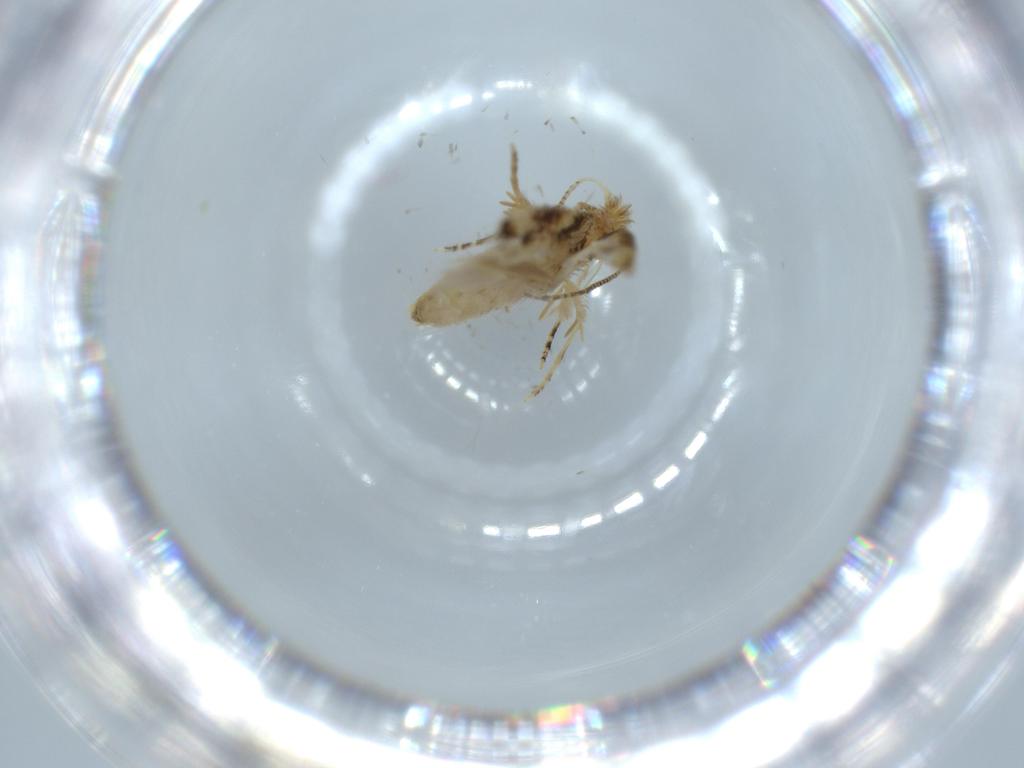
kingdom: Animalia
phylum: Arthropoda
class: Insecta
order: Lepidoptera
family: Bucculatricidae
